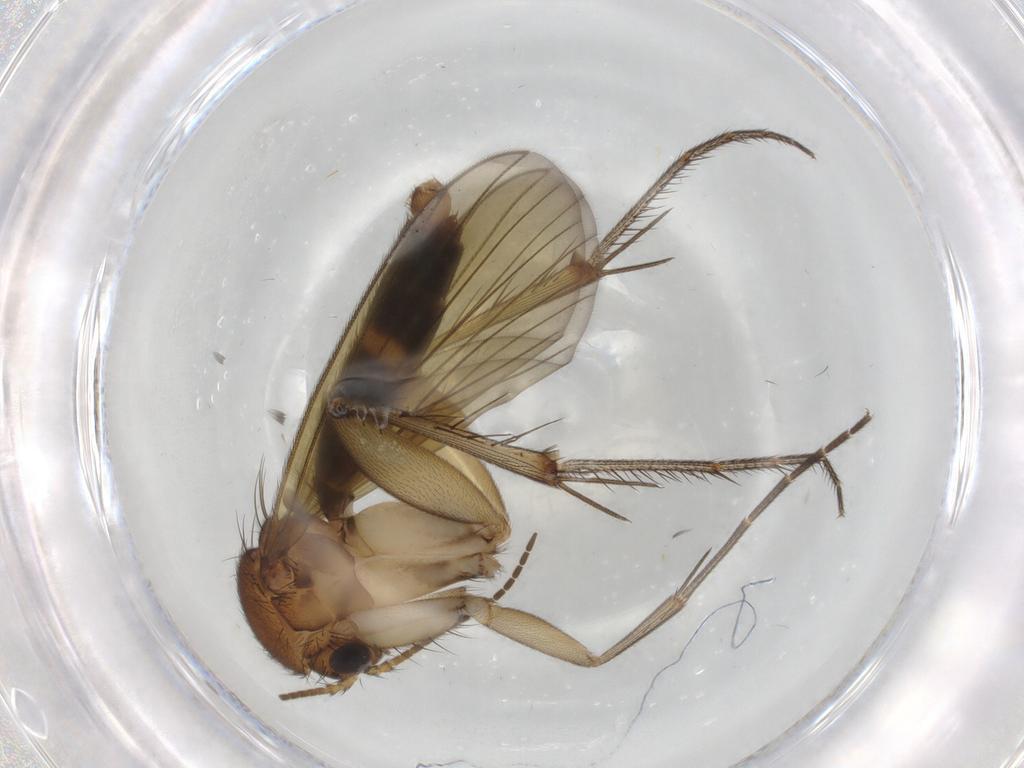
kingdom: Animalia
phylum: Arthropoda
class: Insecta
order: Diptera
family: Mycetophilidae
